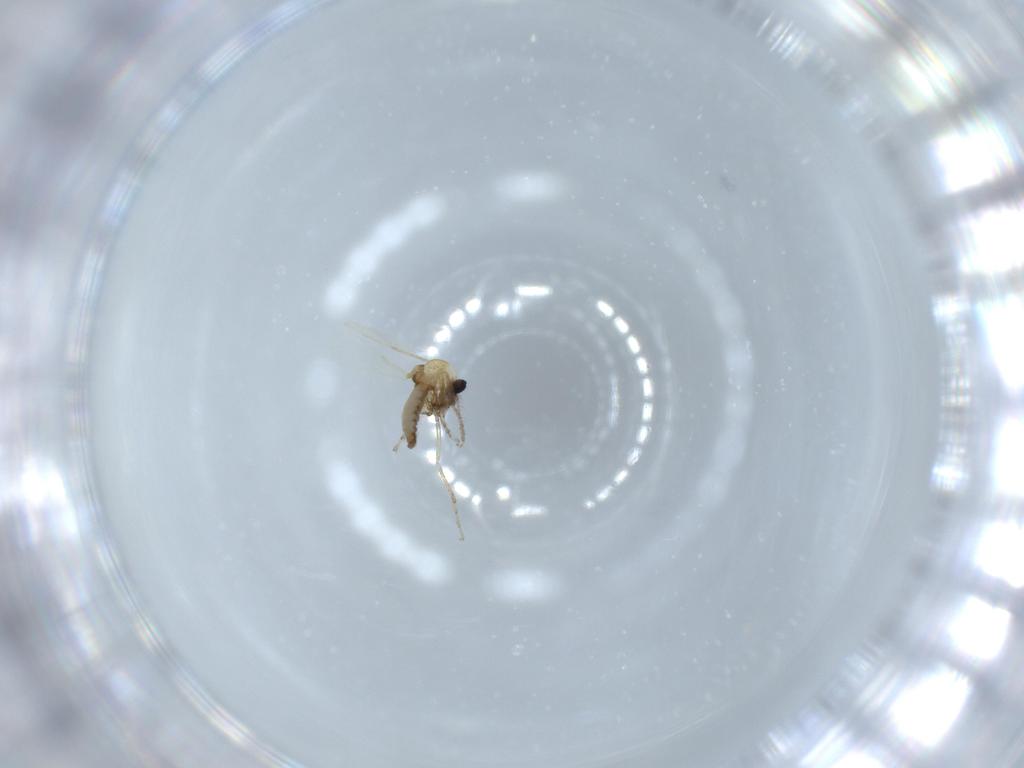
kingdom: Animalia
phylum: Arthropoda
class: Insecta
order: Diptera
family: Ceratopogonidae
